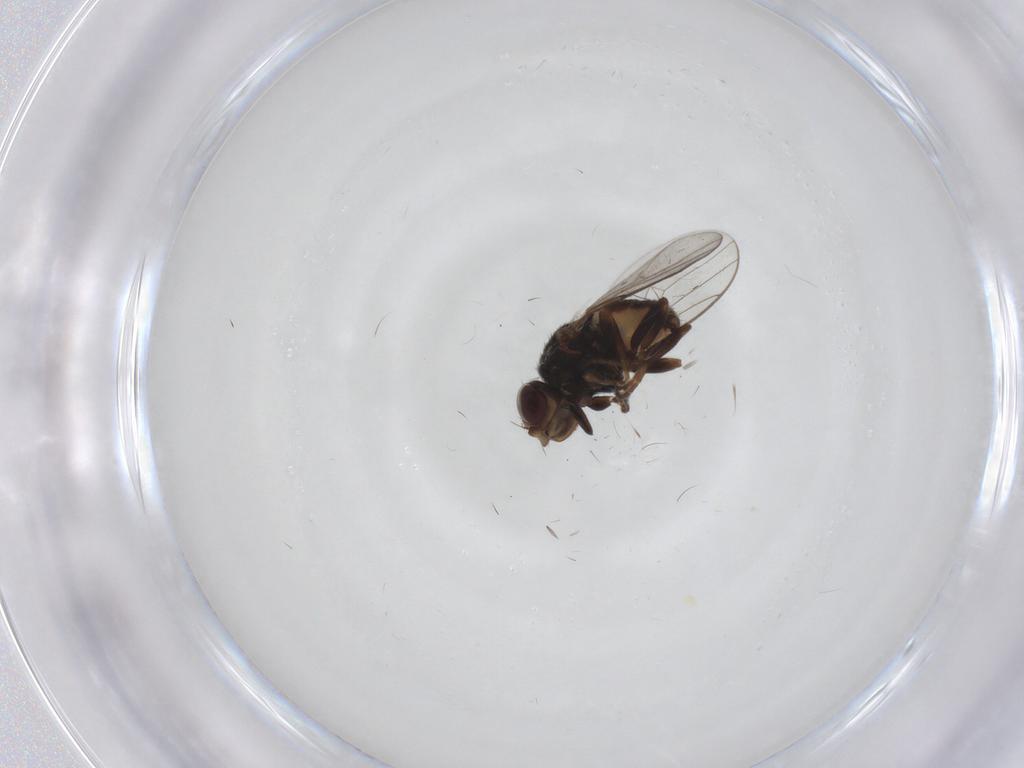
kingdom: Animalia
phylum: Arthropoda
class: Insecta
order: Diptera
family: Chloropidae
